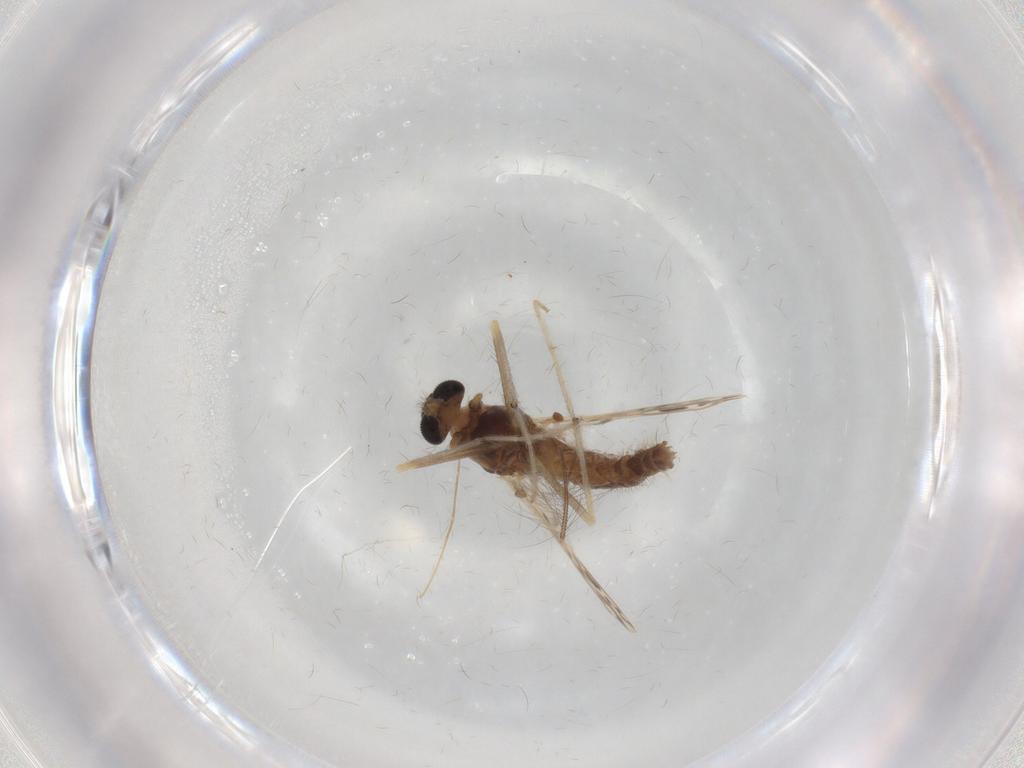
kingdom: Animalia
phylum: Arthropoda
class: Insecta
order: Diptera
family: Chironomidae
